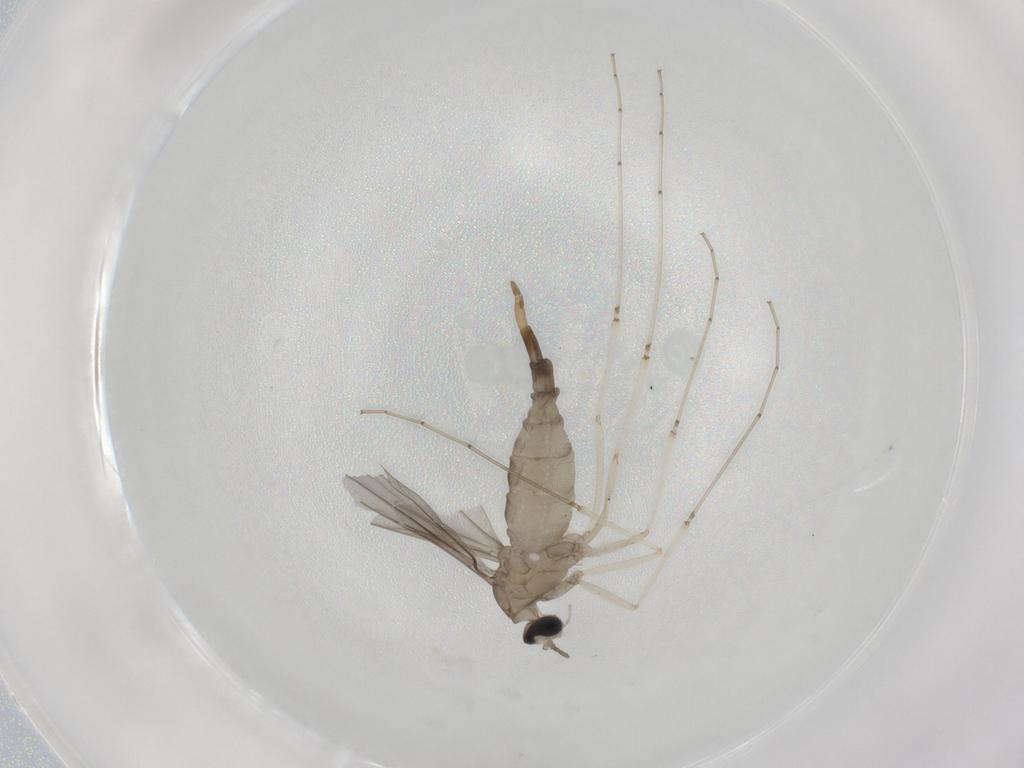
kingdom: Animalia
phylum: Arthropoda
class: Insecta
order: Diptera
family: Cecidomyiidae
